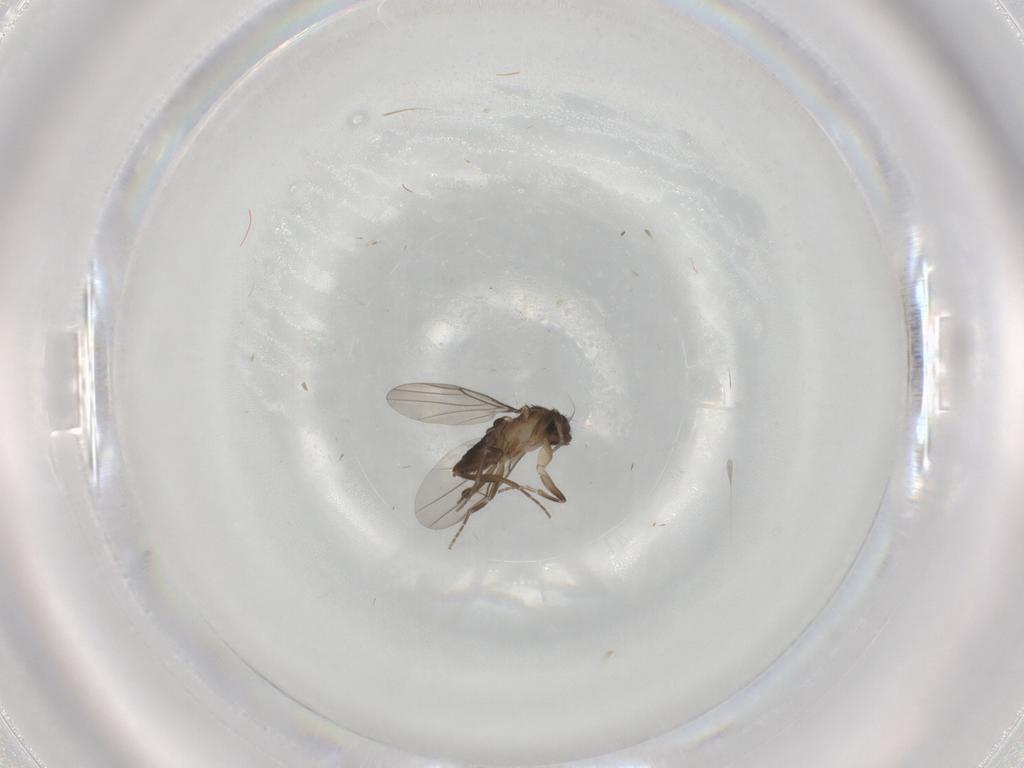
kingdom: Animalia
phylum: Arthropoda
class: Insecta
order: Diptera
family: Phoridae
